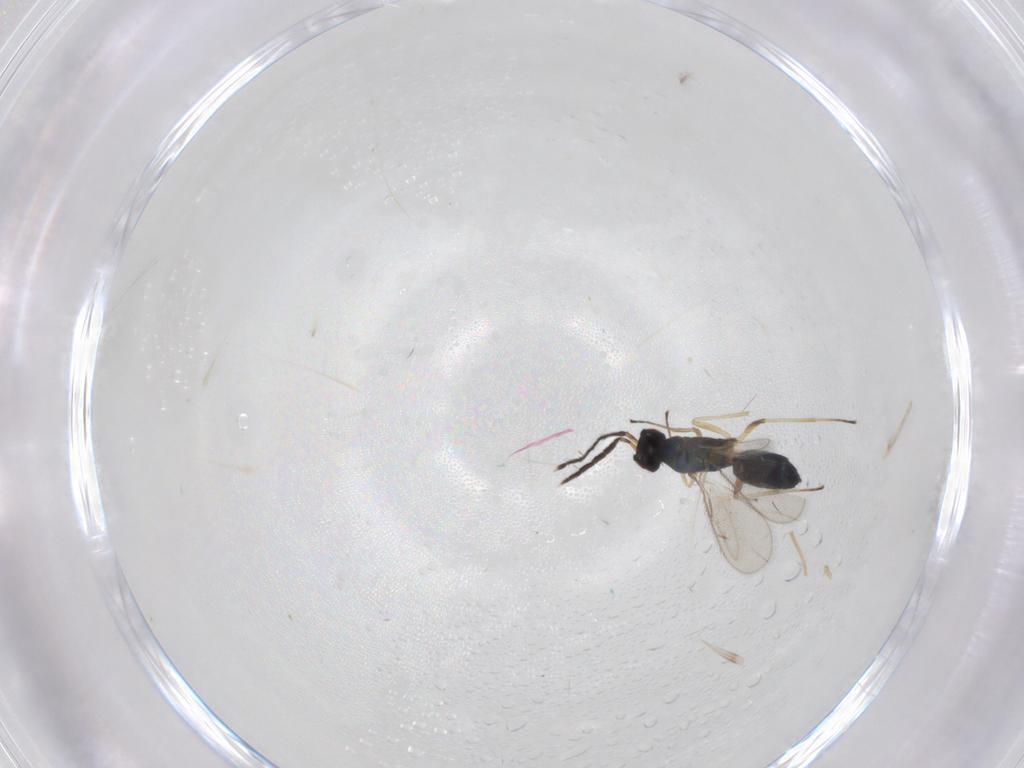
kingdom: Animalia
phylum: Arthropoda
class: Insecta
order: Hymenoptera
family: Eulophidae
